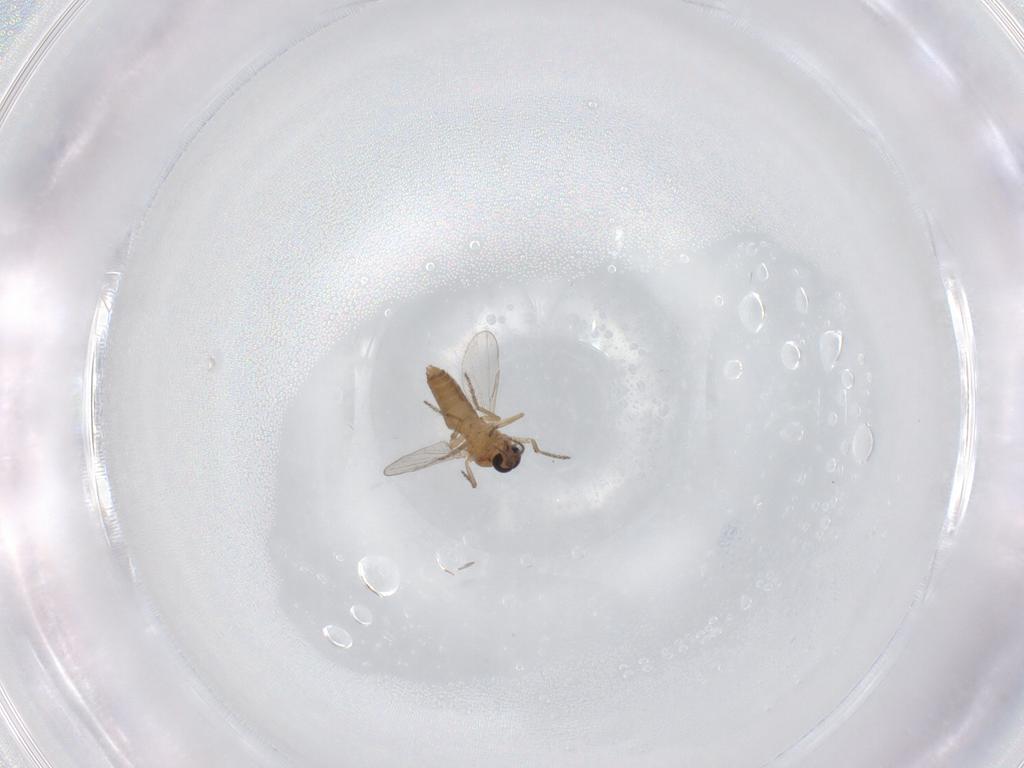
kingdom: Animalia
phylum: Arthropoda
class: Insecta
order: Diptera
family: Ceratopogonidae
